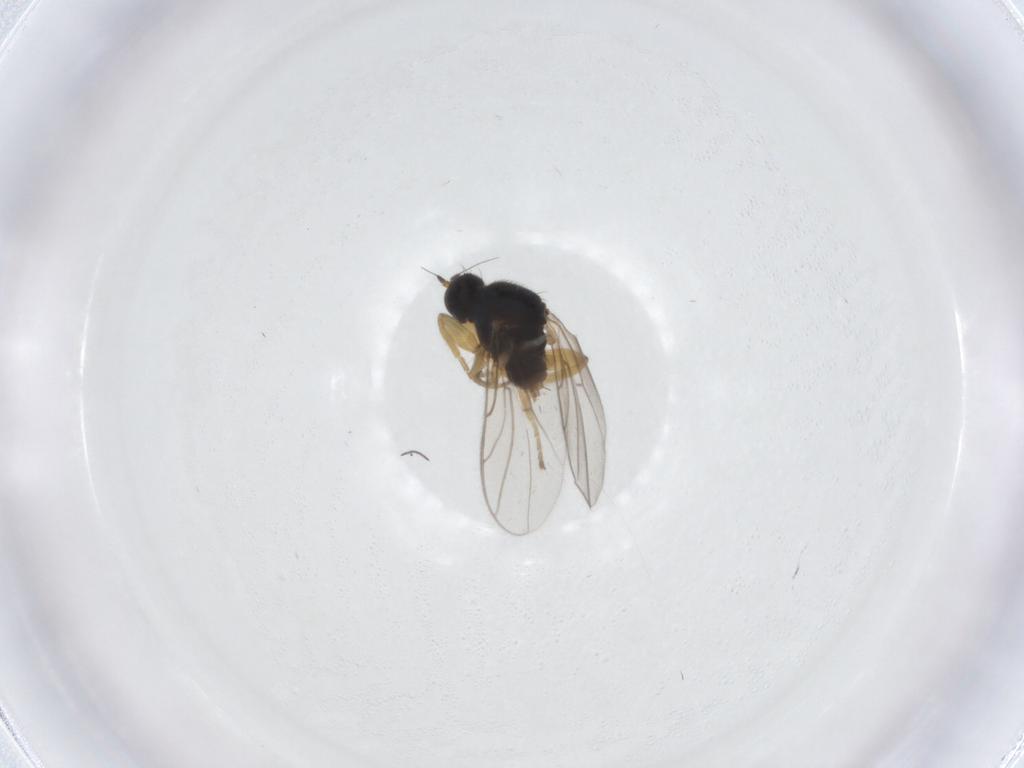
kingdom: Animalia
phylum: Arthropoda
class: Insecta
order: Diptera
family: Hybotidae
